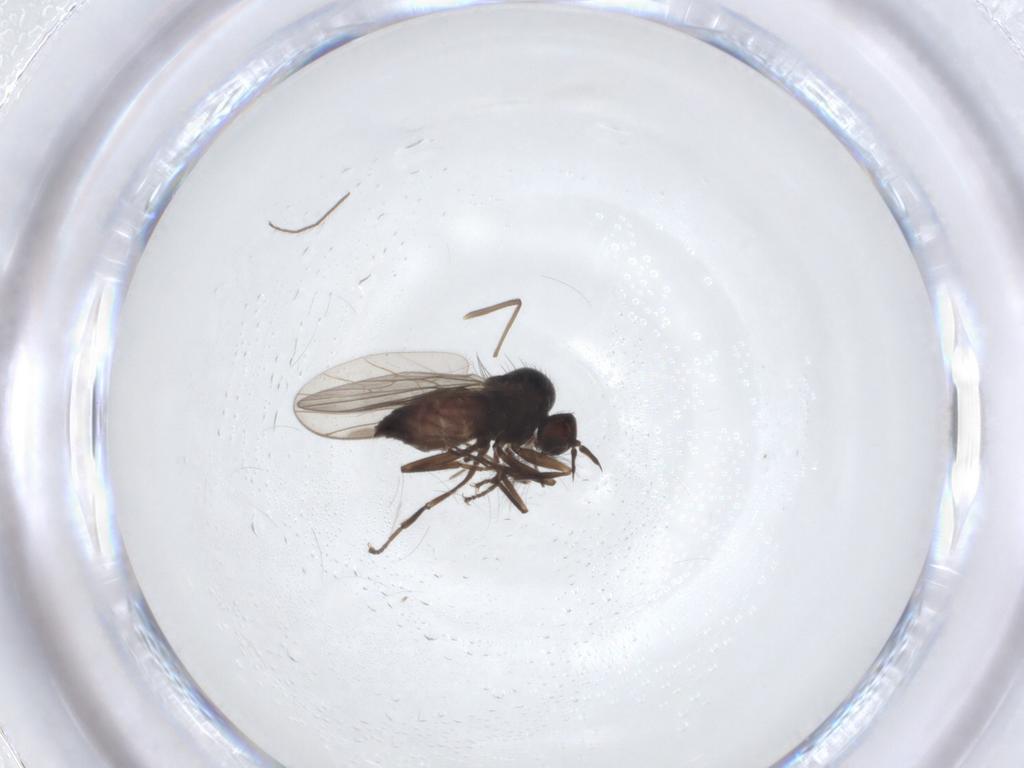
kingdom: Animalia
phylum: Arthropoda
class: Insecta
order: Diptera
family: Hybotidae
